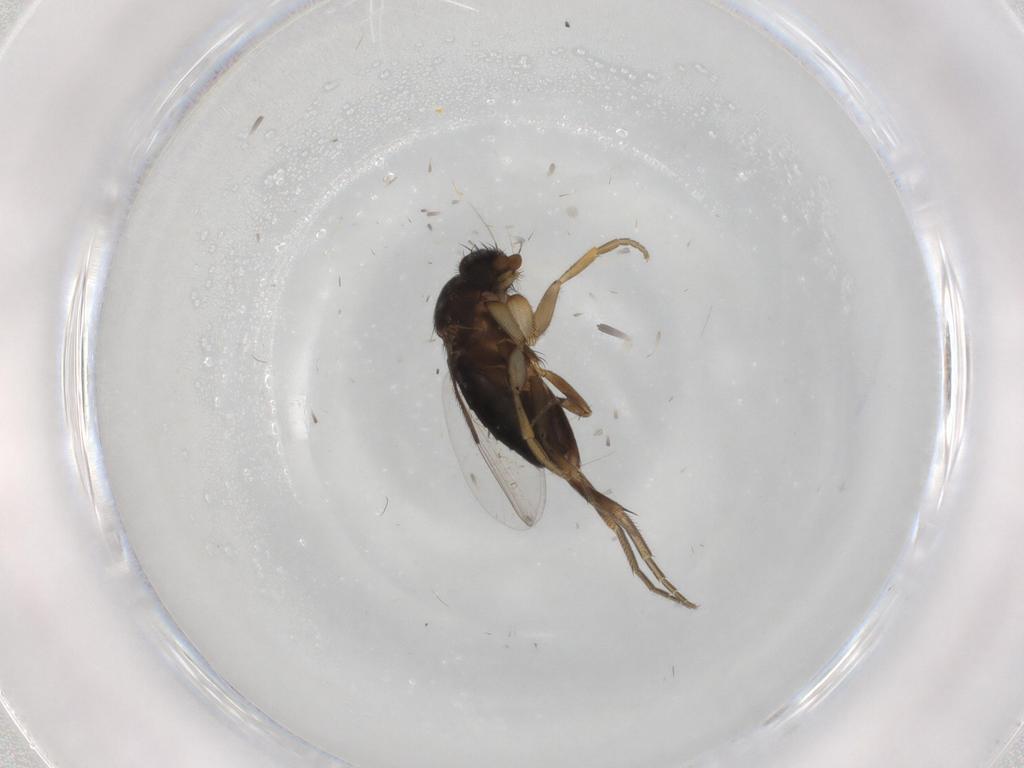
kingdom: Animalia
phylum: Arthropoda
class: Insecta
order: Diptera
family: Phoridae
